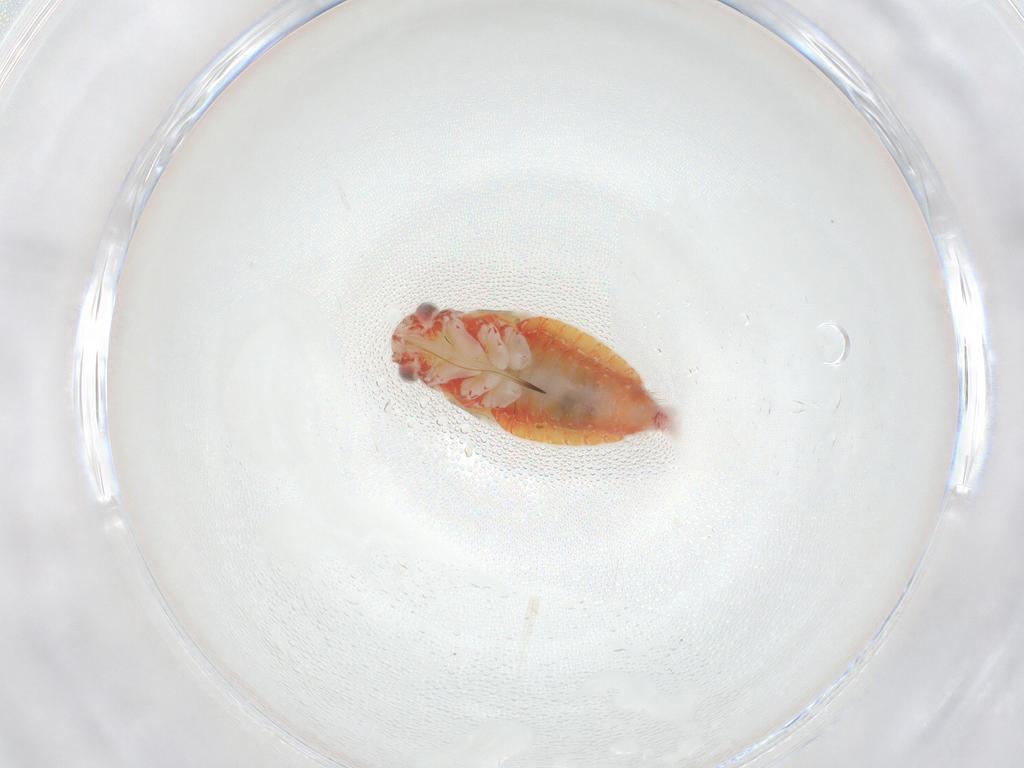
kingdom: Animalia
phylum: Arthropoda
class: Insecta
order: Hemiptera
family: Miridae
